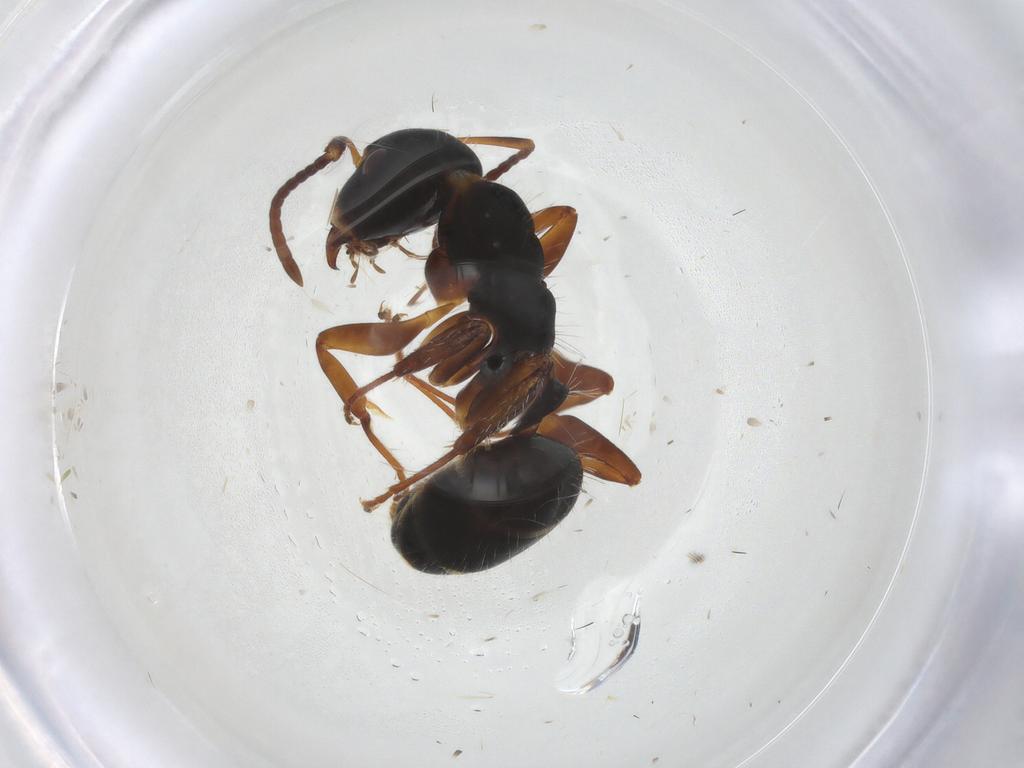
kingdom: Animalia
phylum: Arthropoda
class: Insecta
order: Hymenoptera
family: Formicidae
